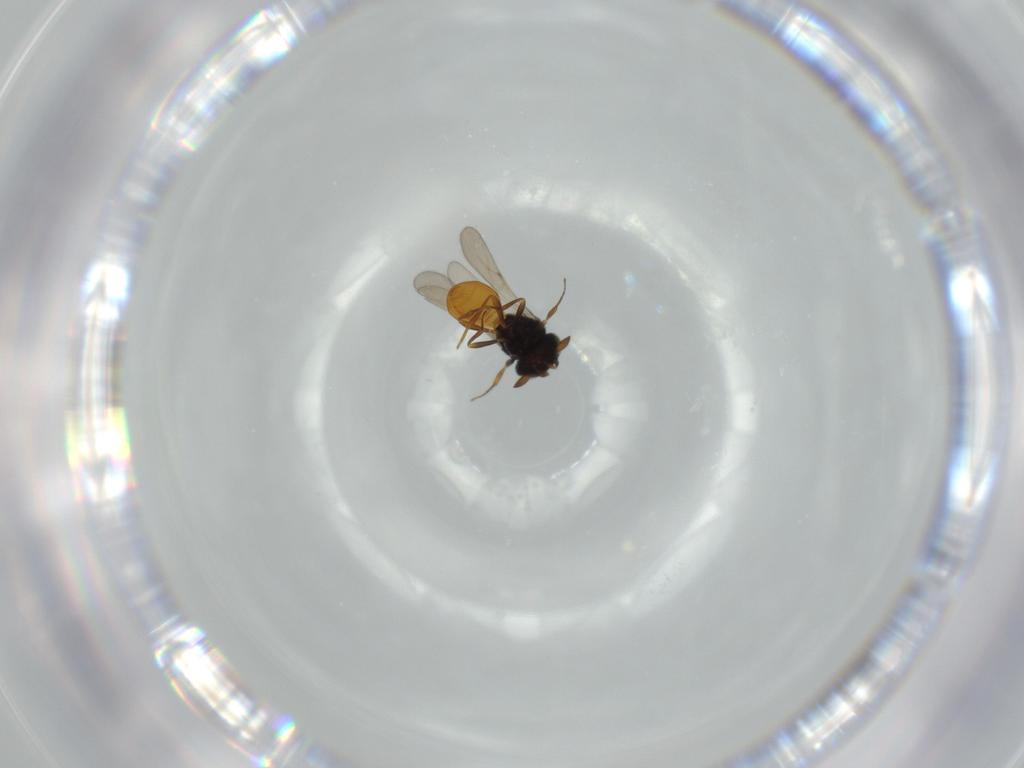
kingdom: Animalia
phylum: Arthropoda
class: Insecta
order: Hymenoptera
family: Scelionidae
